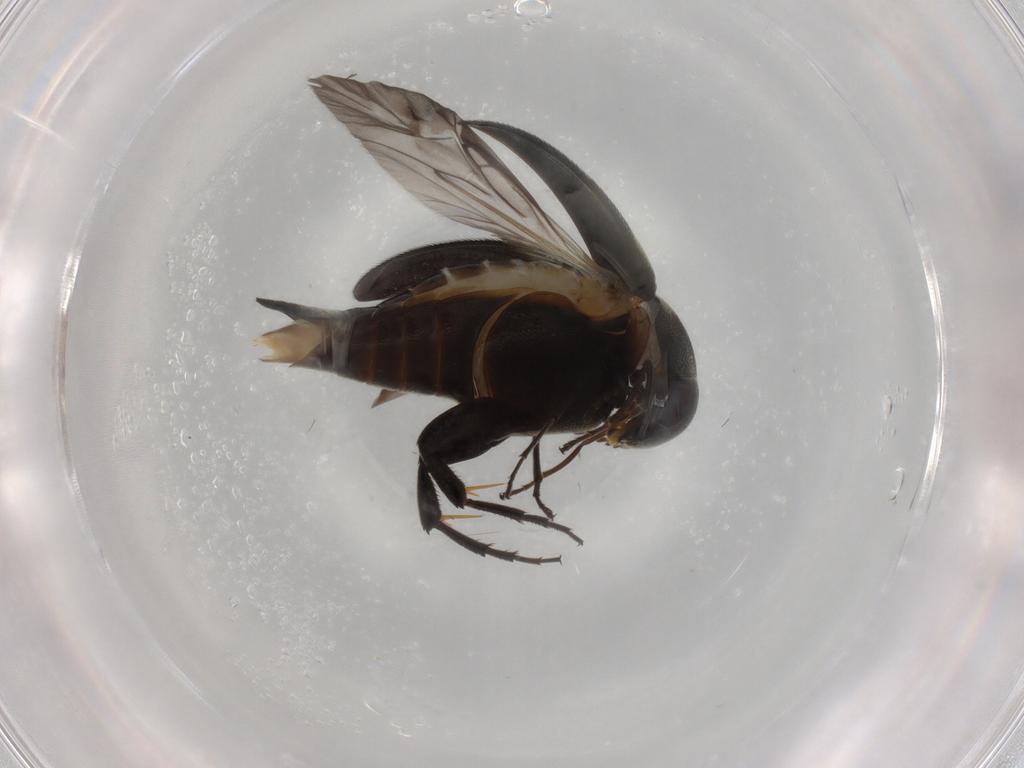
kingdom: Animalia
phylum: Arthropoda
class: Insecta
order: Coleoptera
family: Mordellidae
